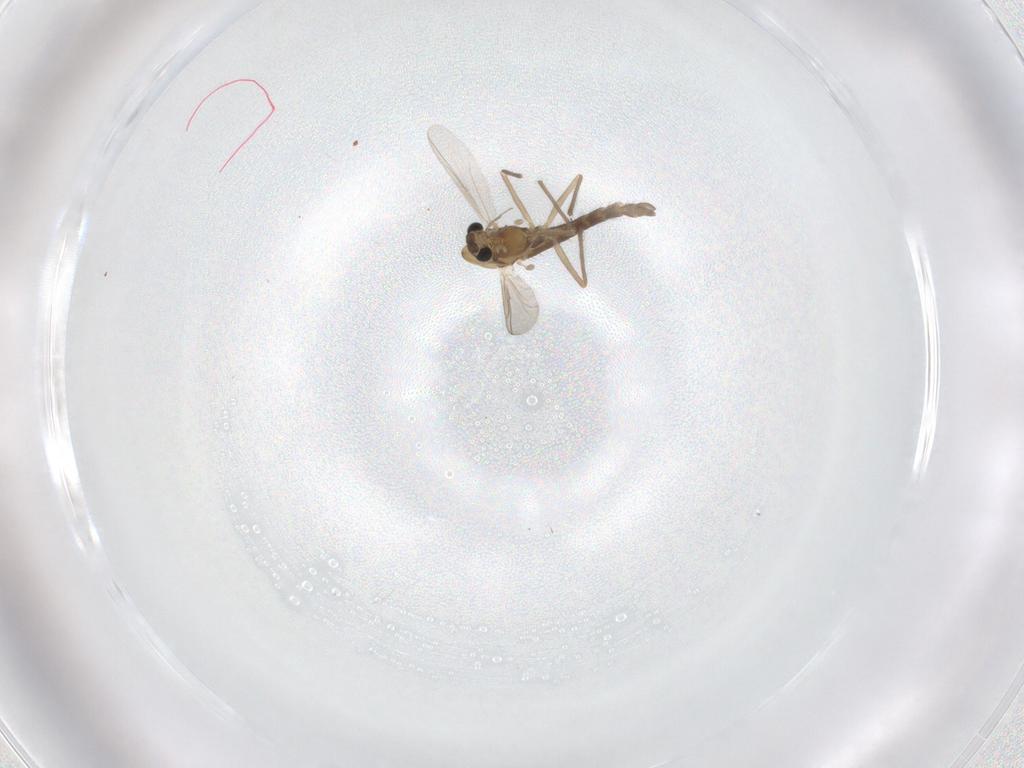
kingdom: Animalia
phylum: Arthropoda
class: Insecta
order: Diptera
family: Chironomidae
